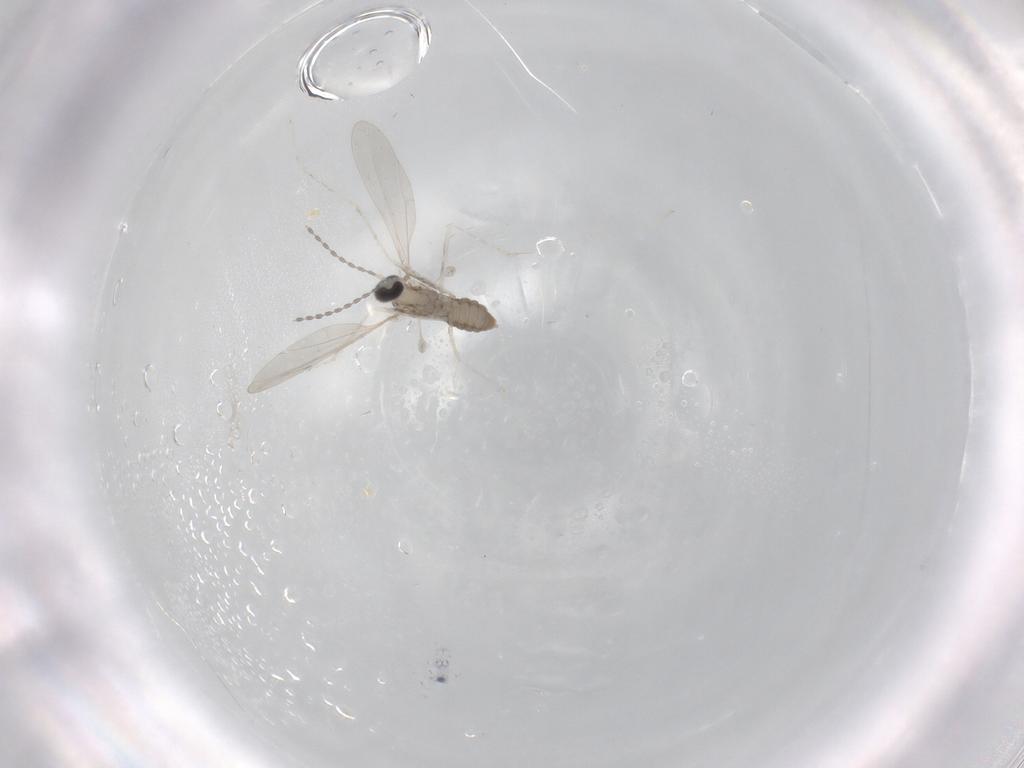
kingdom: Animalia
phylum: Arthropoda
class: Insecta
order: Diptera
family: Cecidomyiidae
